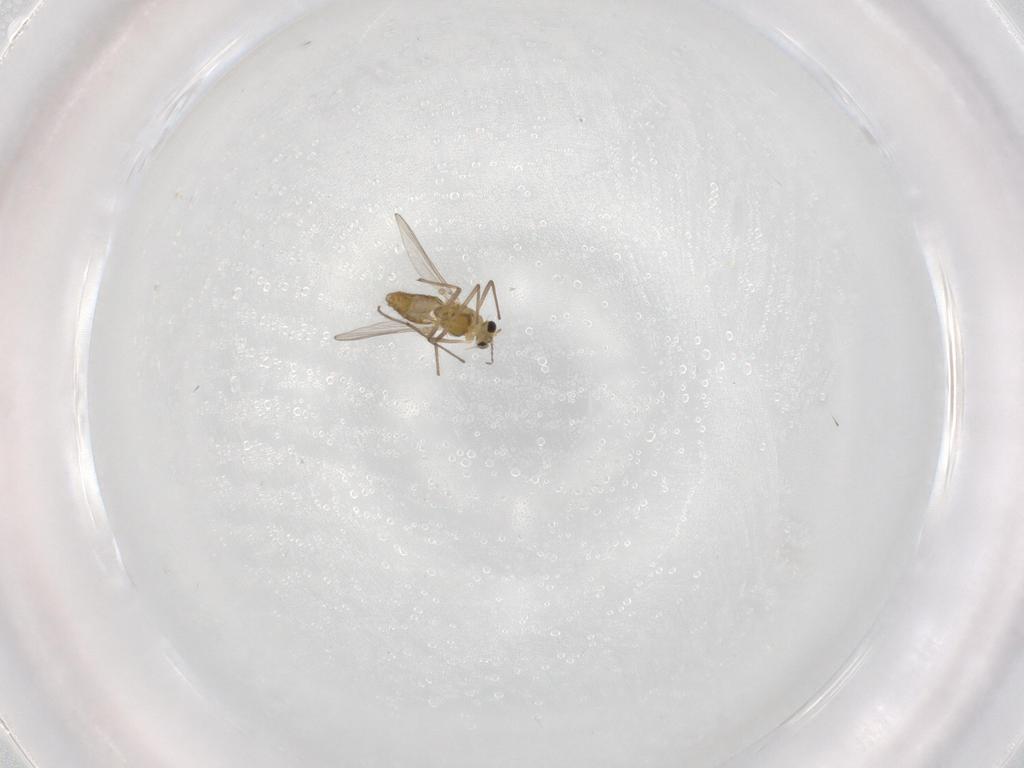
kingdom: Animalia
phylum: Arthropoda
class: Insecta
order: Diptera
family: Chironomidae
